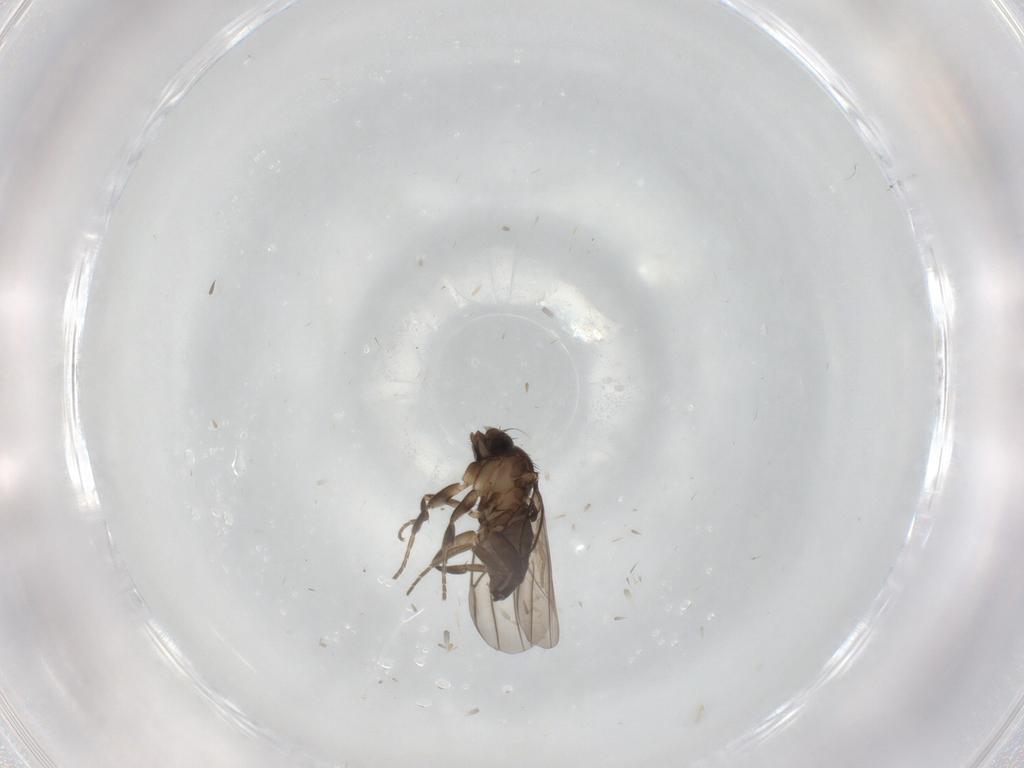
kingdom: Animalia
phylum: Arthropoda
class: Insecta
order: Diptera
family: Phoridae
